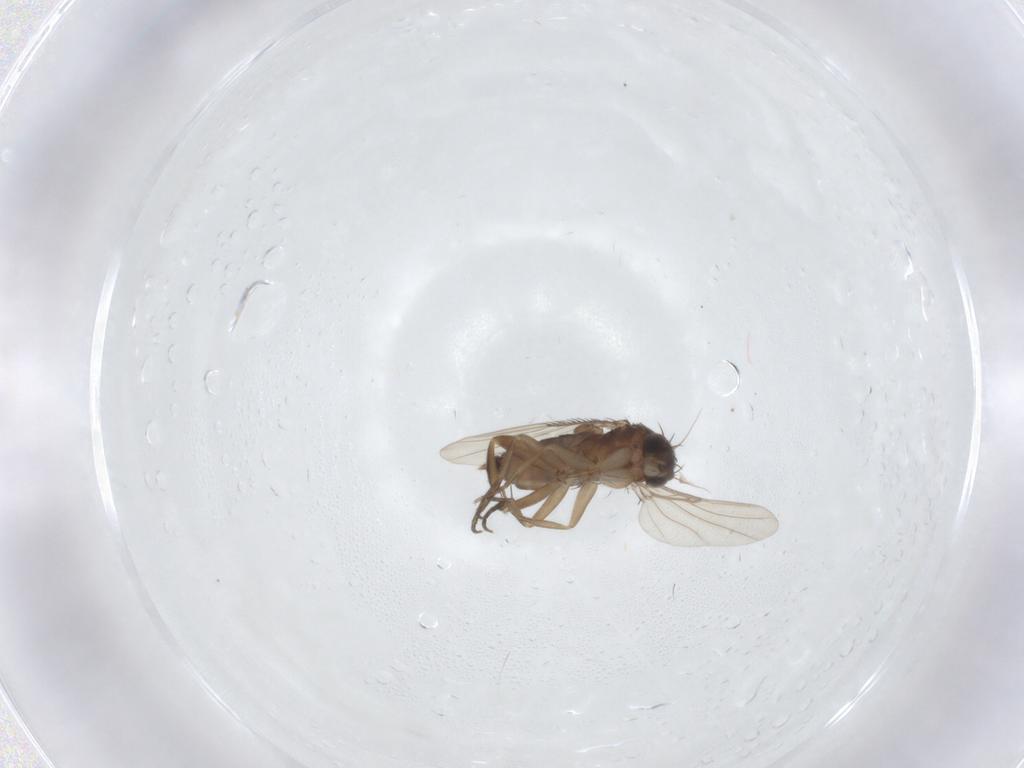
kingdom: Animalia
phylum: Arthropoda
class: Insecta
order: Diptera
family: Phoridae
